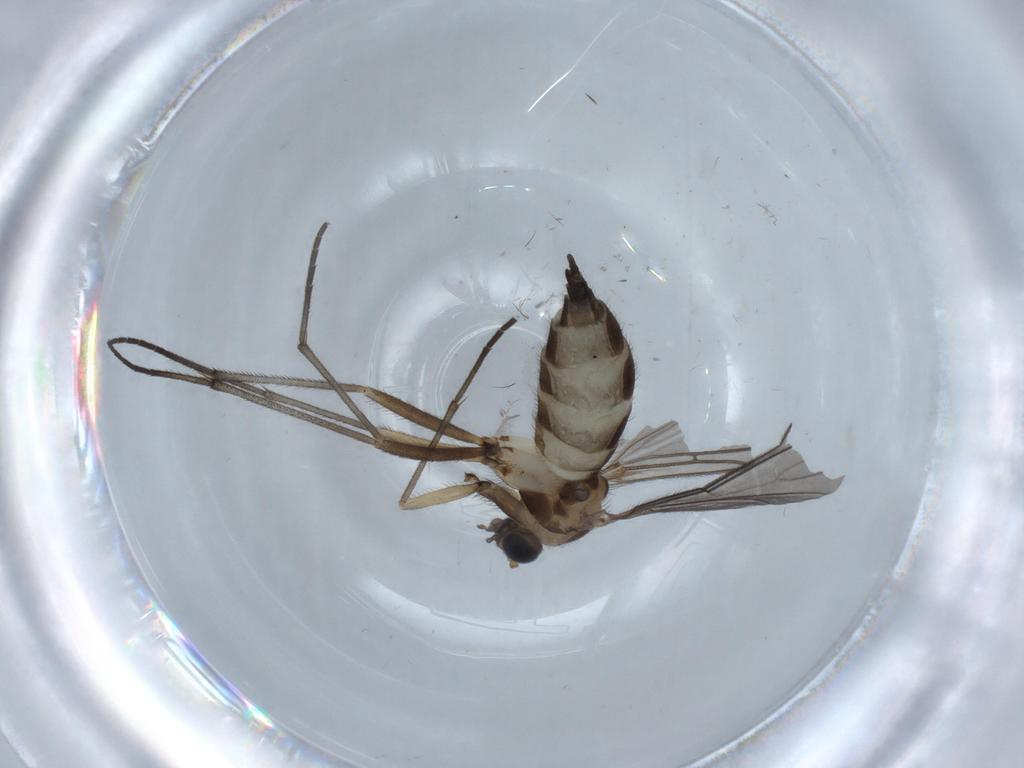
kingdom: Animalia
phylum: Arthropoda
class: Insecta
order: Diptera
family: Sciaridae
